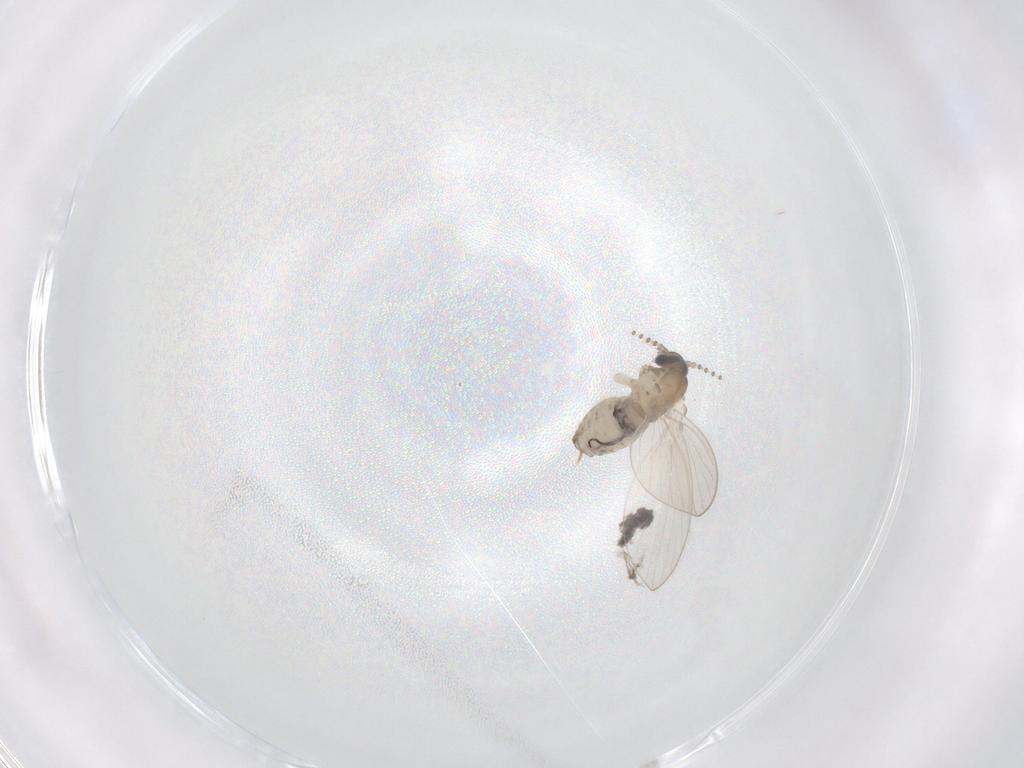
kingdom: Animalia
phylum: Arthropoda
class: Insecta
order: Diptera
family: Psychodidae
